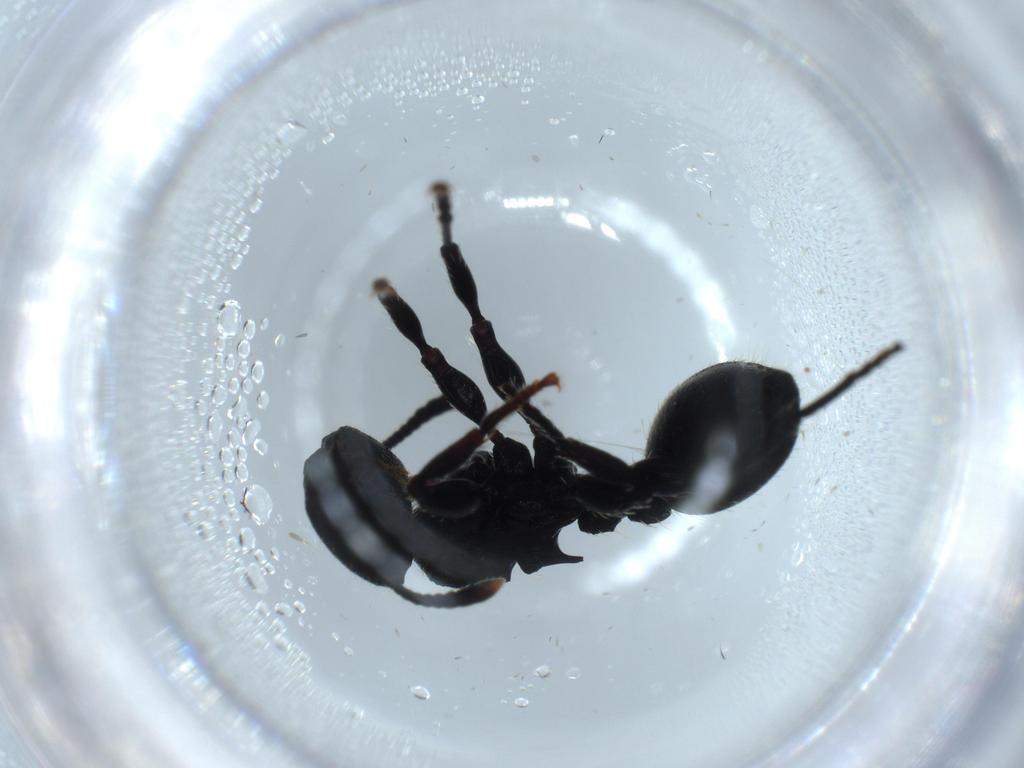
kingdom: Animalia
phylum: Arthropoda
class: Insecta
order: Hymenoptera
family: Formicidae
